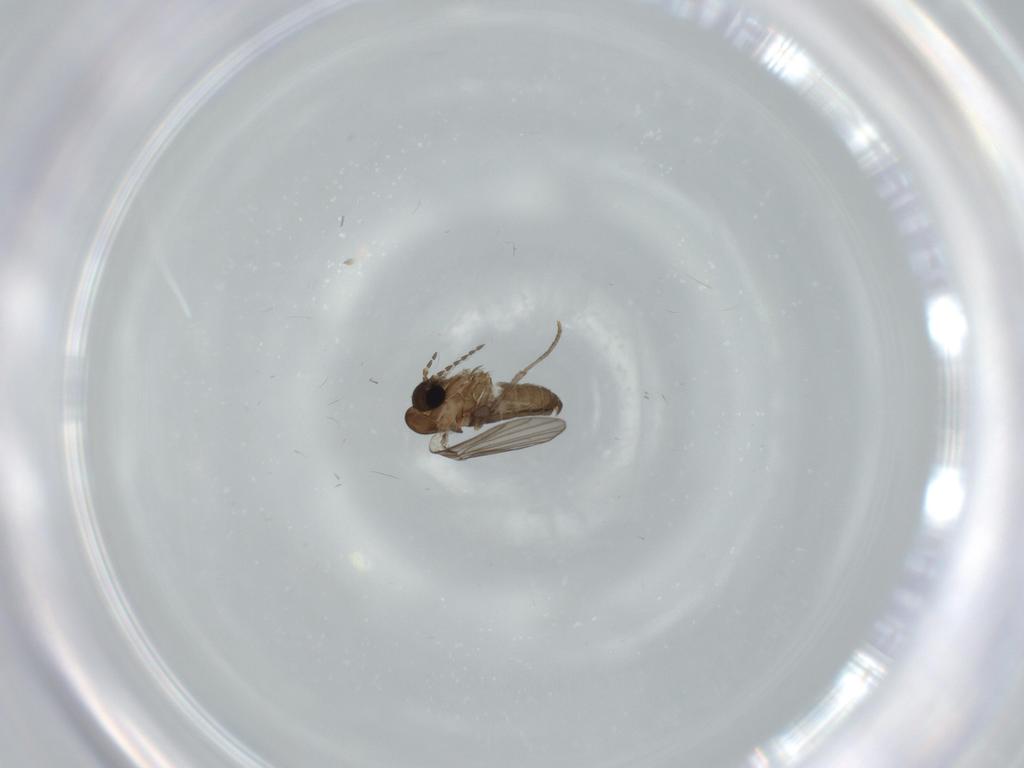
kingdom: Animalia
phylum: Arthropoda
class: Insecta
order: Diptera
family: Psychodidae
